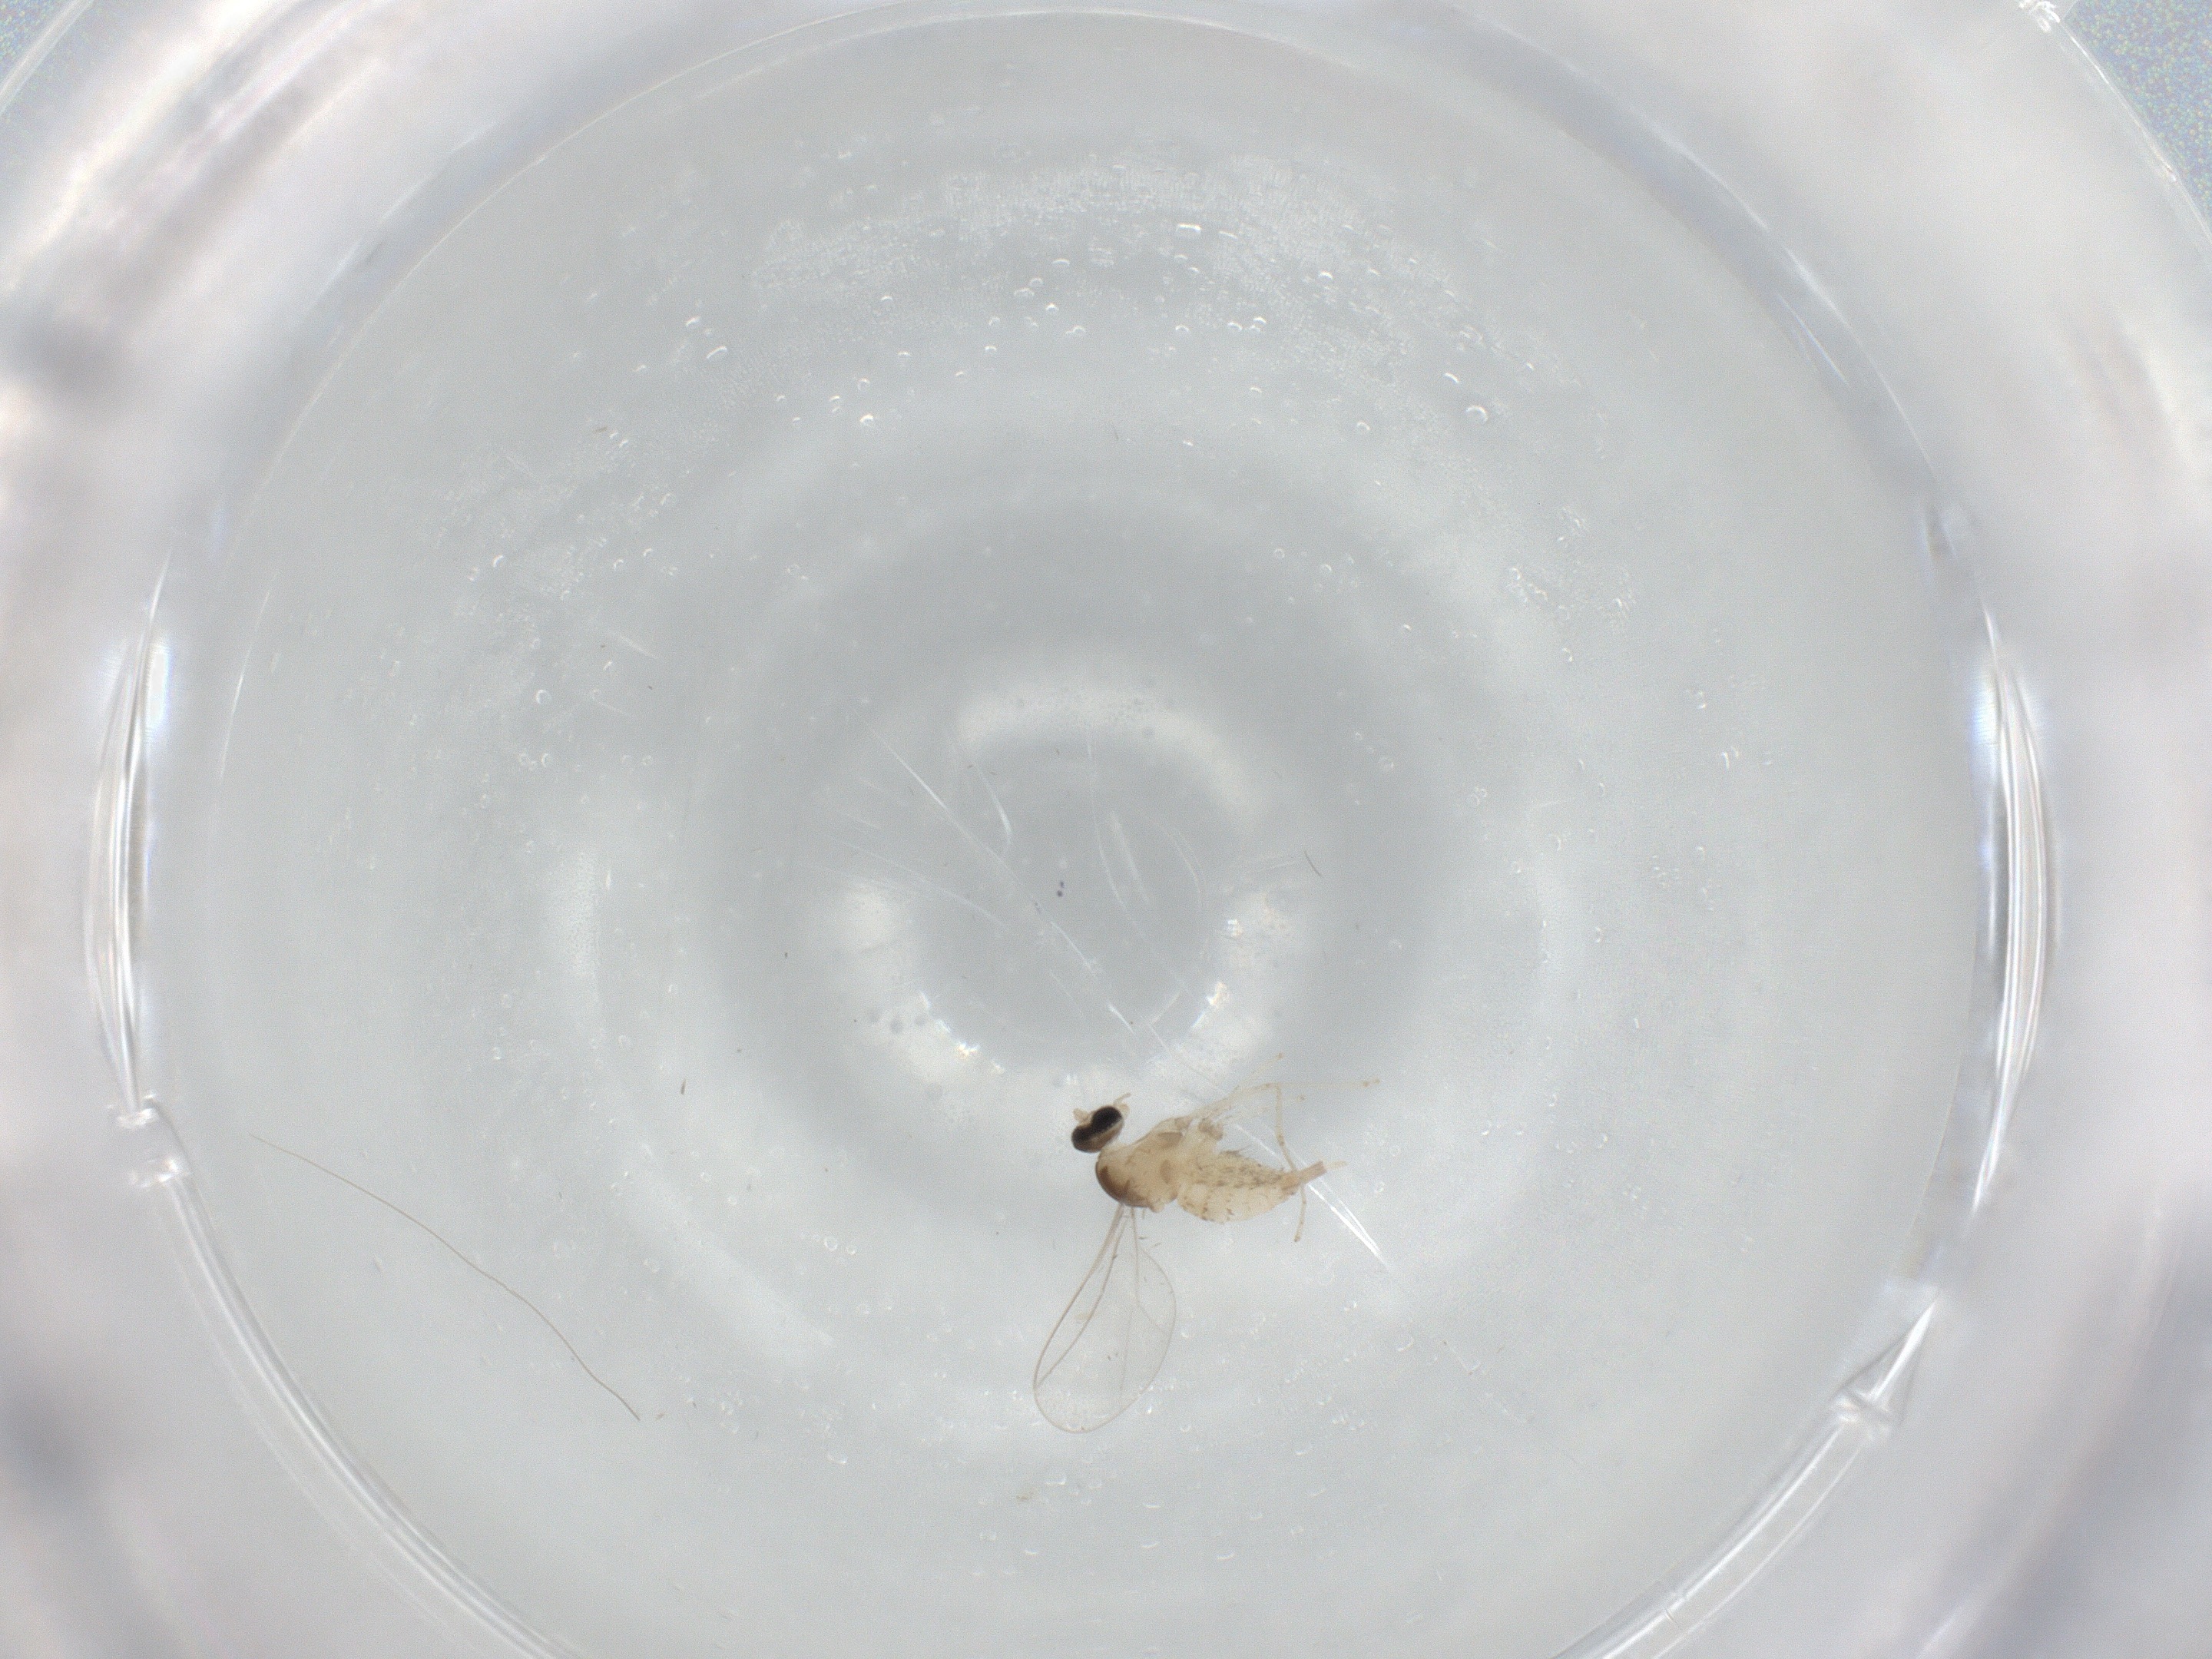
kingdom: Animalia
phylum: Arthropoda
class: Insecta
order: Diptera
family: Cecidomyiidae
